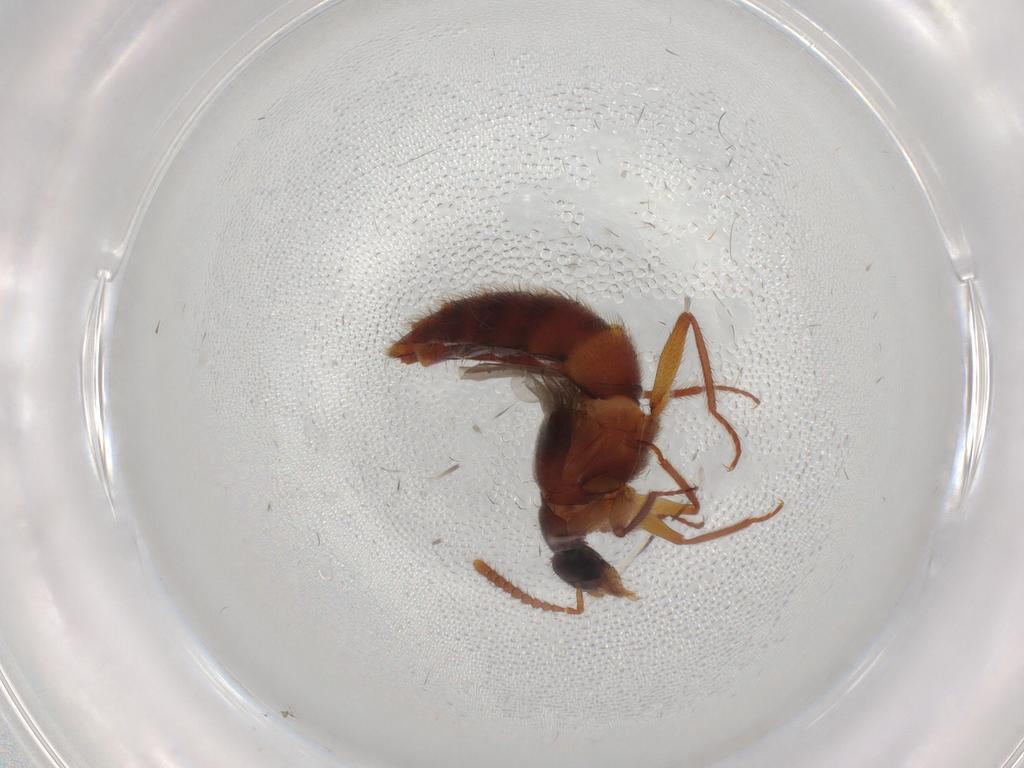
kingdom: Animalia
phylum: Arthropoda
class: Insecta
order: Coleoptera
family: Staphylinidae
